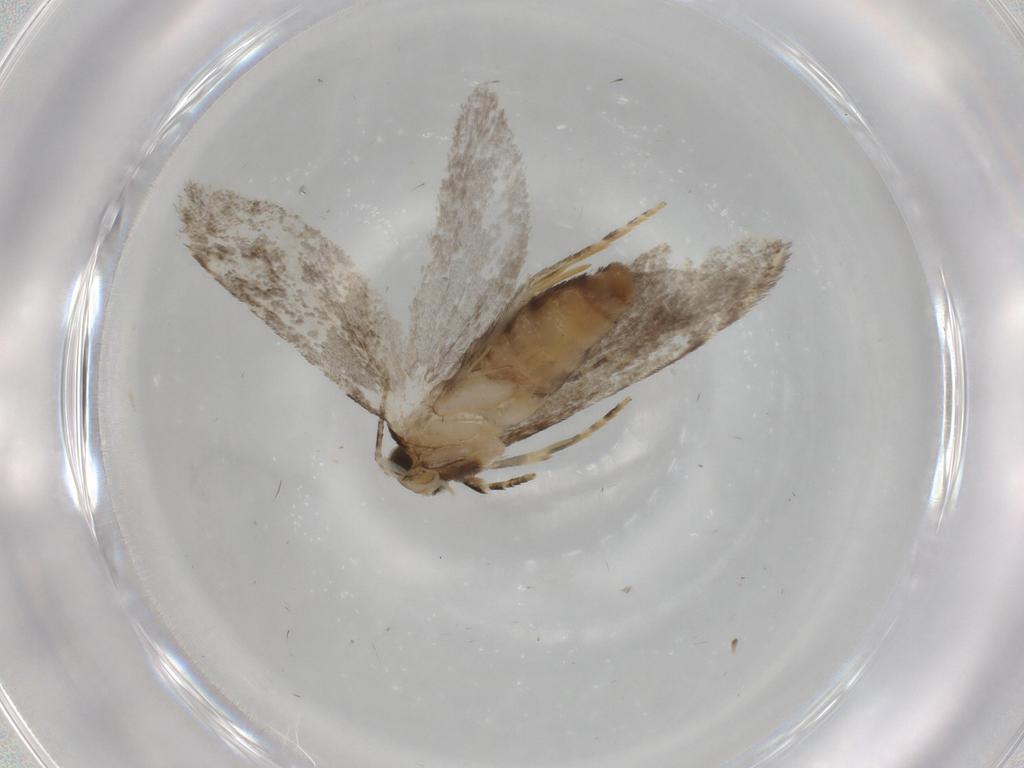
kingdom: Animalia
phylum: Arthropoda
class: Insecta
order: Lepidoptera
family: Tineidae
